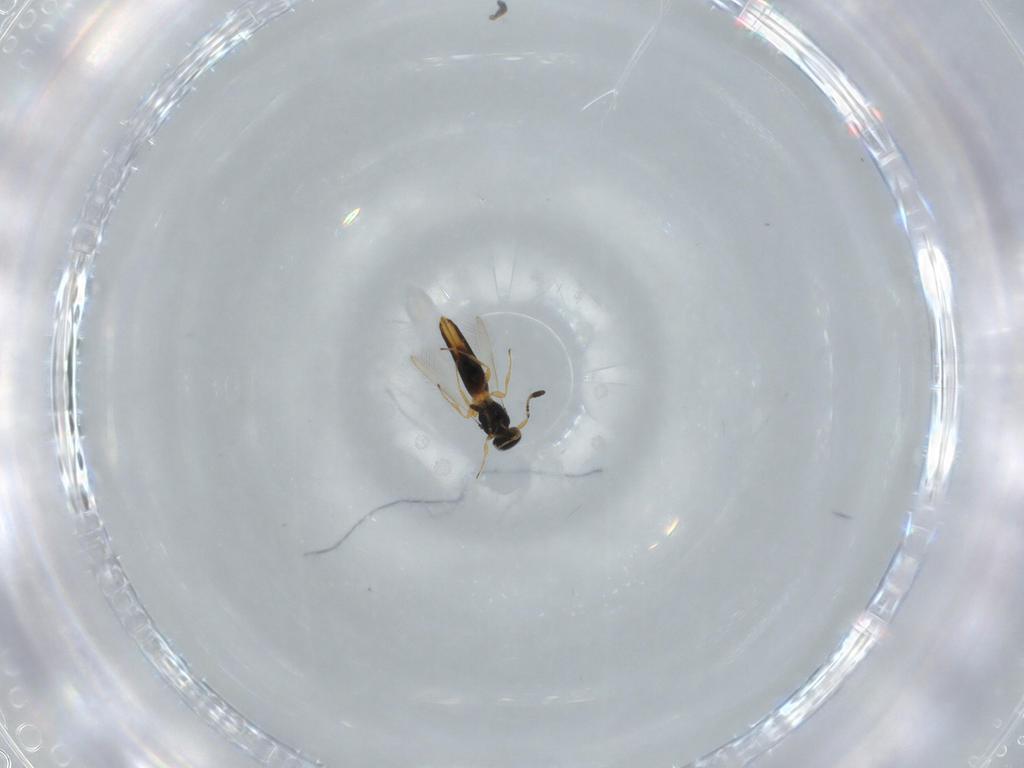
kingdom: Animalia
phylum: Arthropoda
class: Insecta
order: Hymenoptera
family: Scelionidae
